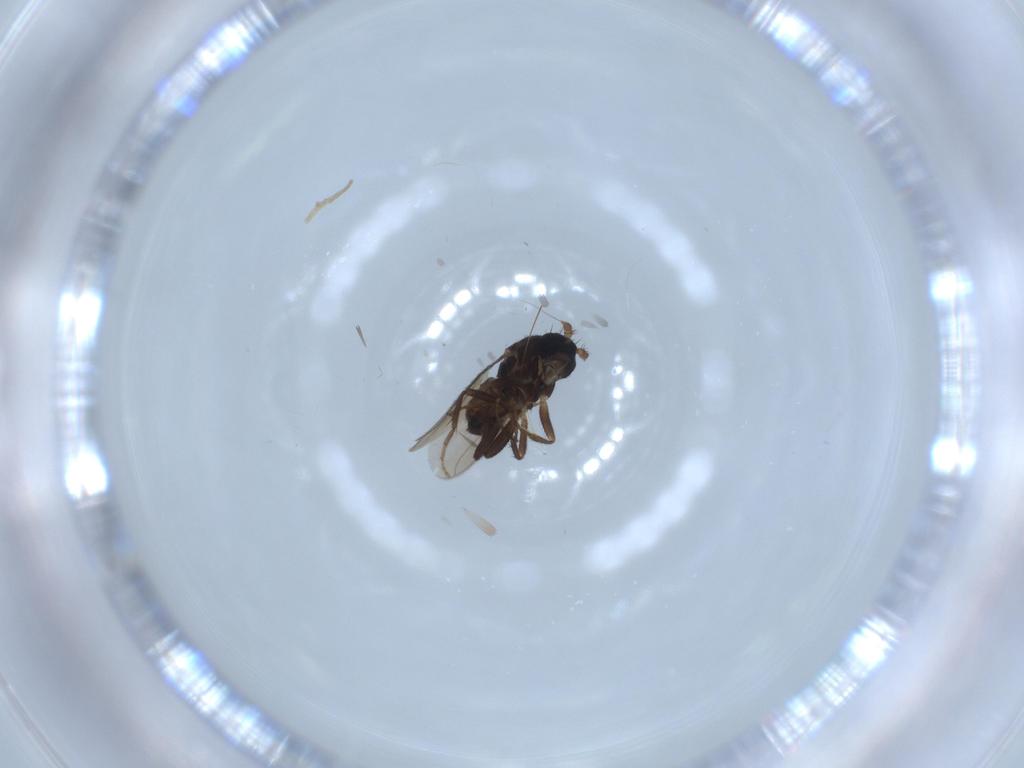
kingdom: Animalia
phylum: Arthropoda
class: Insecta
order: Diptera
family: Sphaeroceridae
